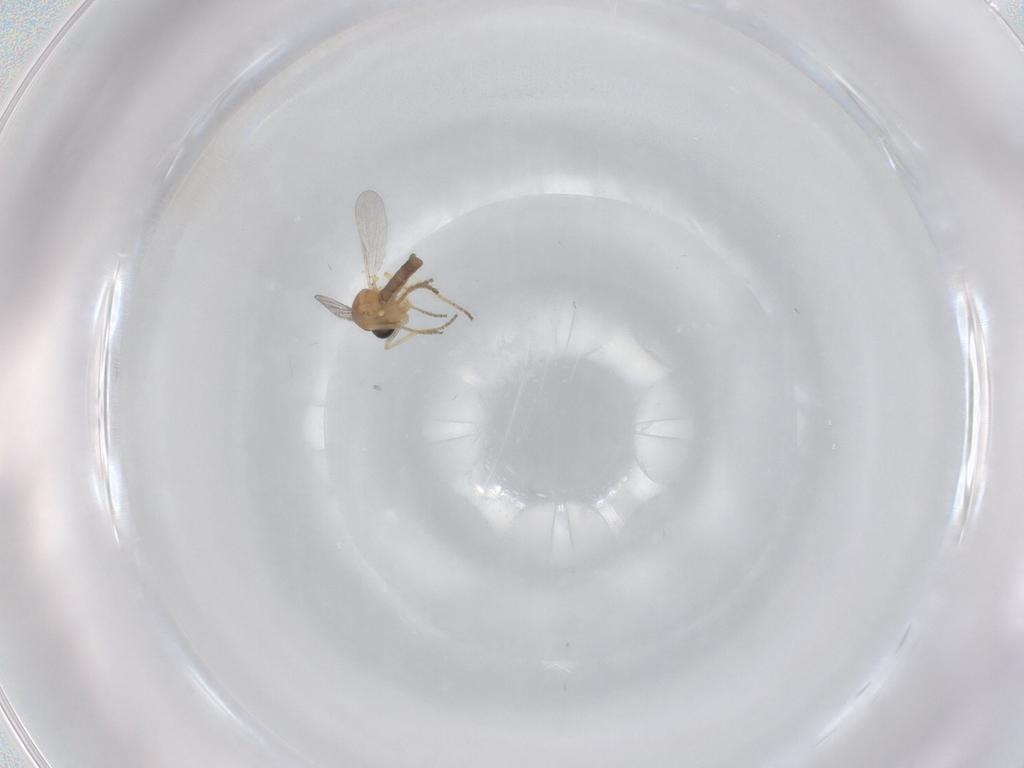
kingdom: Animalia
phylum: Arthropoda
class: Insecta
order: Diptera
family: Ceratopogonidae
